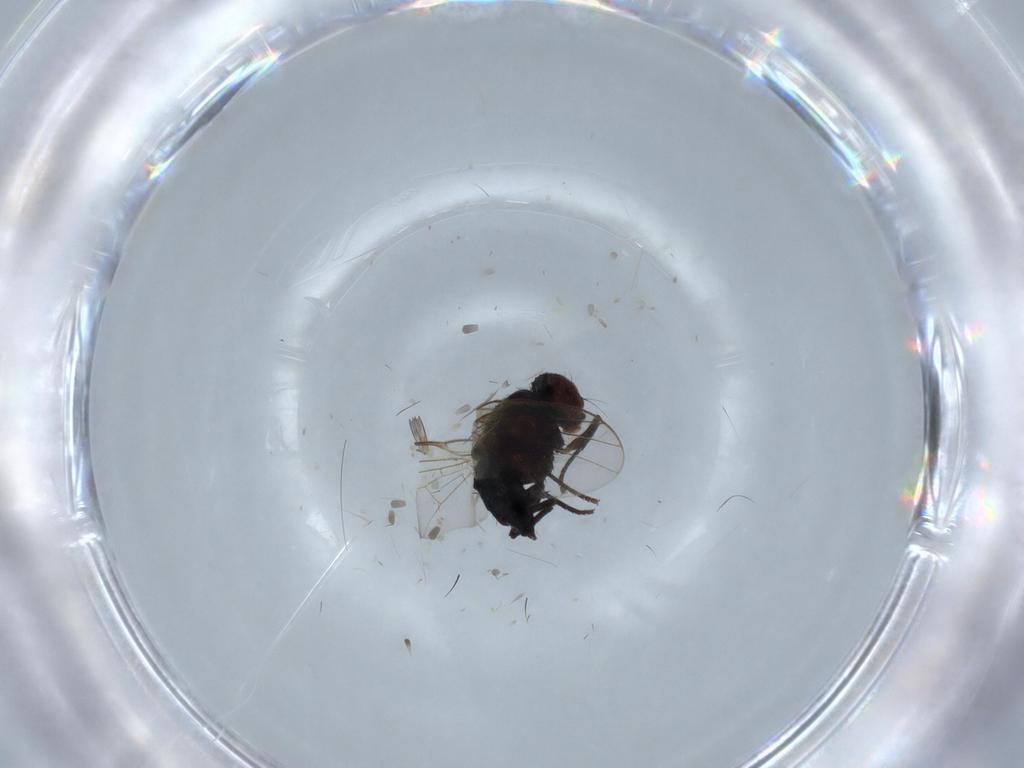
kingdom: Animalia
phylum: Arthropoda
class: Insecta
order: Diptera
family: Agromyzidae
